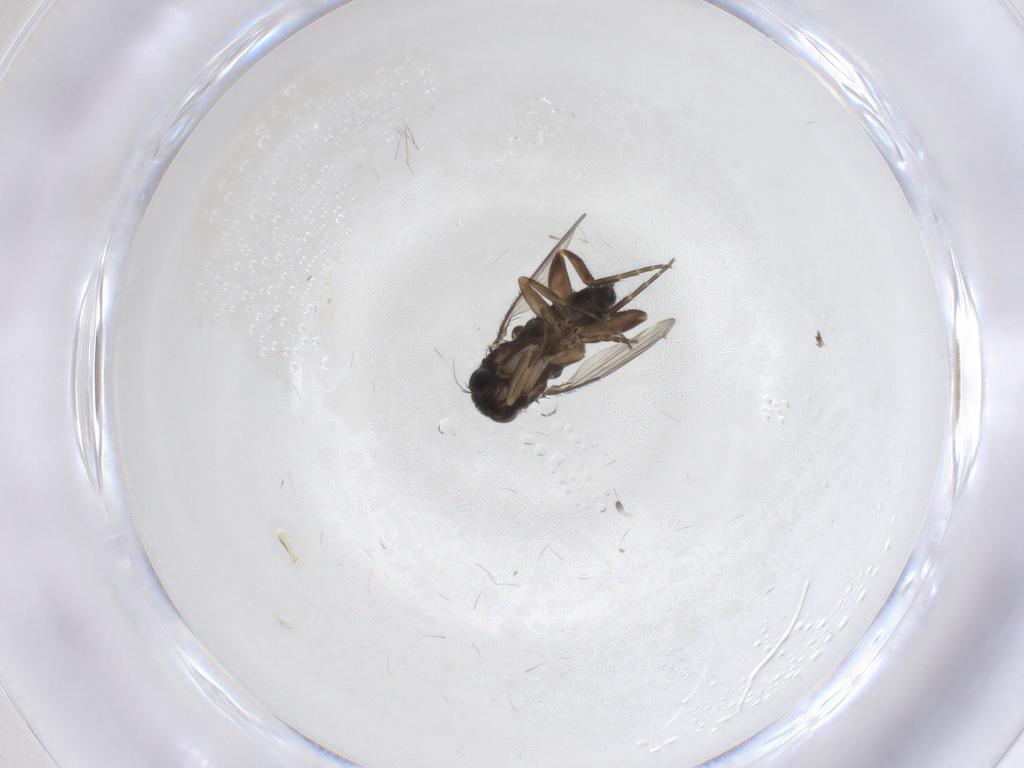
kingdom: Animalia
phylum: Arthropoda
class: Insecta
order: Diptera
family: Phoridae
